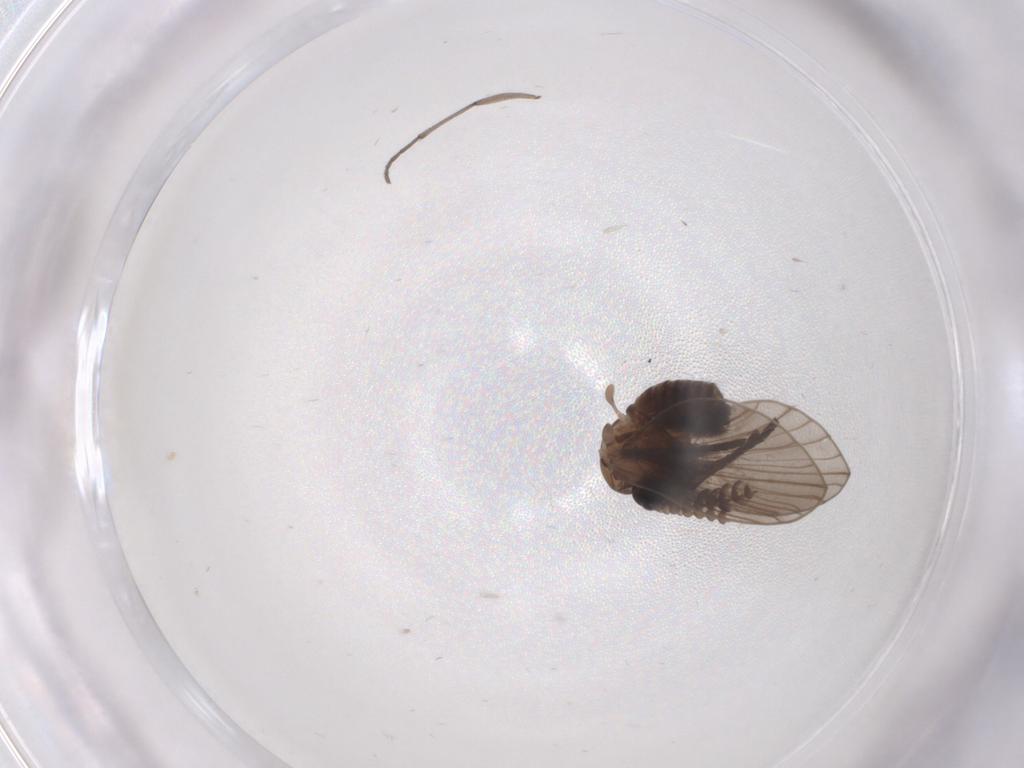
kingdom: Animalia
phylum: Arthropoda
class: Insecta
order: Diptera
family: Psychodidae
